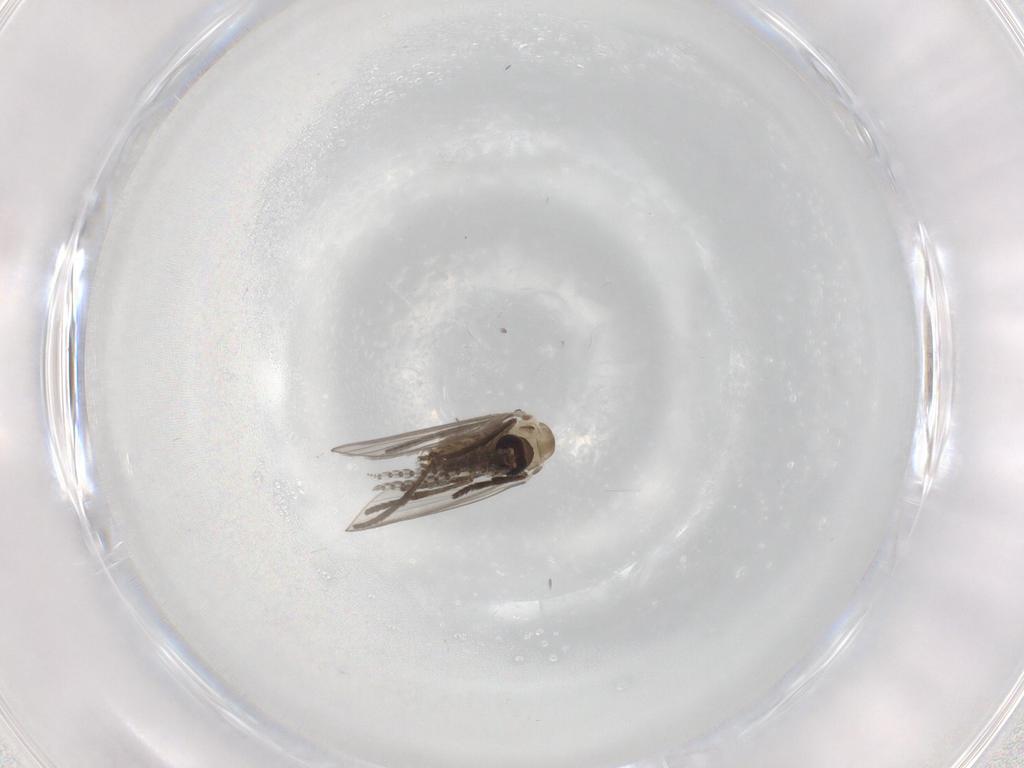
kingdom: Animalia
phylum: Arthropoda
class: Insecta
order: Diptera
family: Psychodidae
